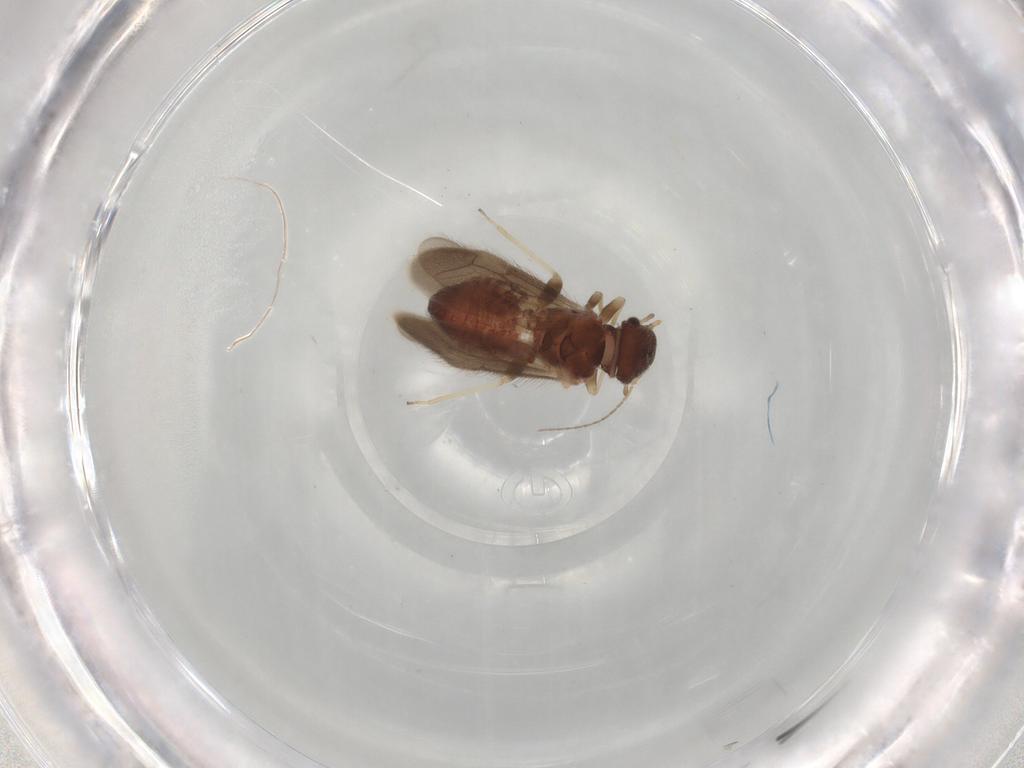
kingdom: Animalia
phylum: Arthropoda
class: Insecta
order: Psocodea
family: Archipsocidae
